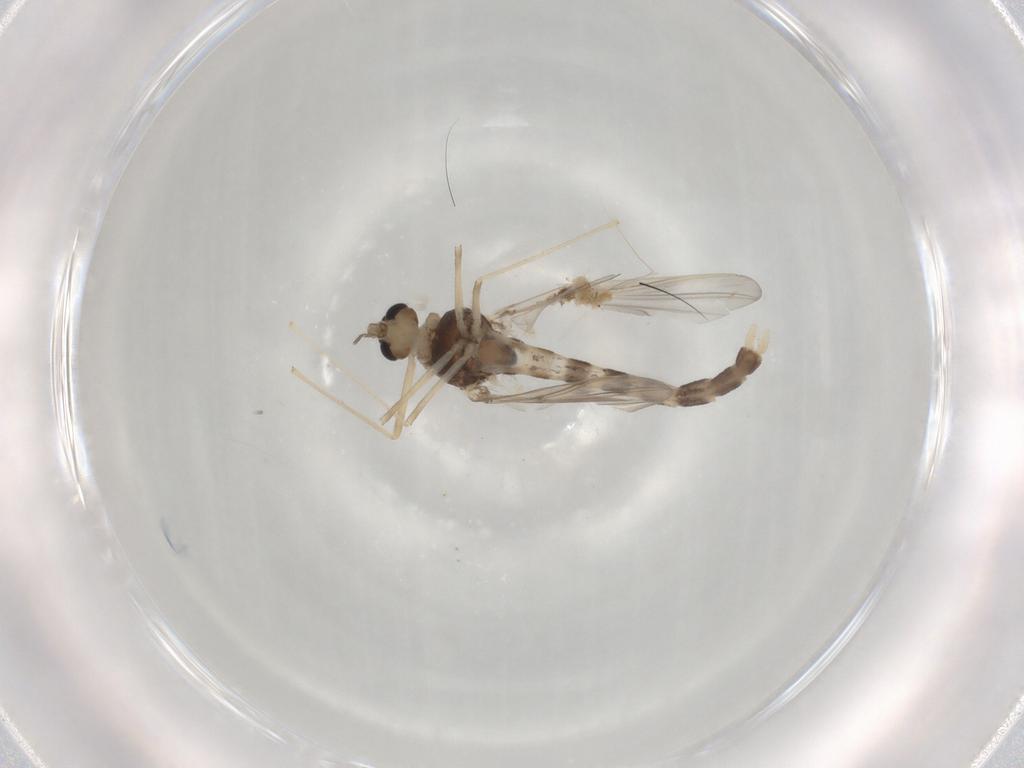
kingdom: Animalia
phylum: Arthropoda
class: Insecta
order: Diptera
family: Chironomidae
